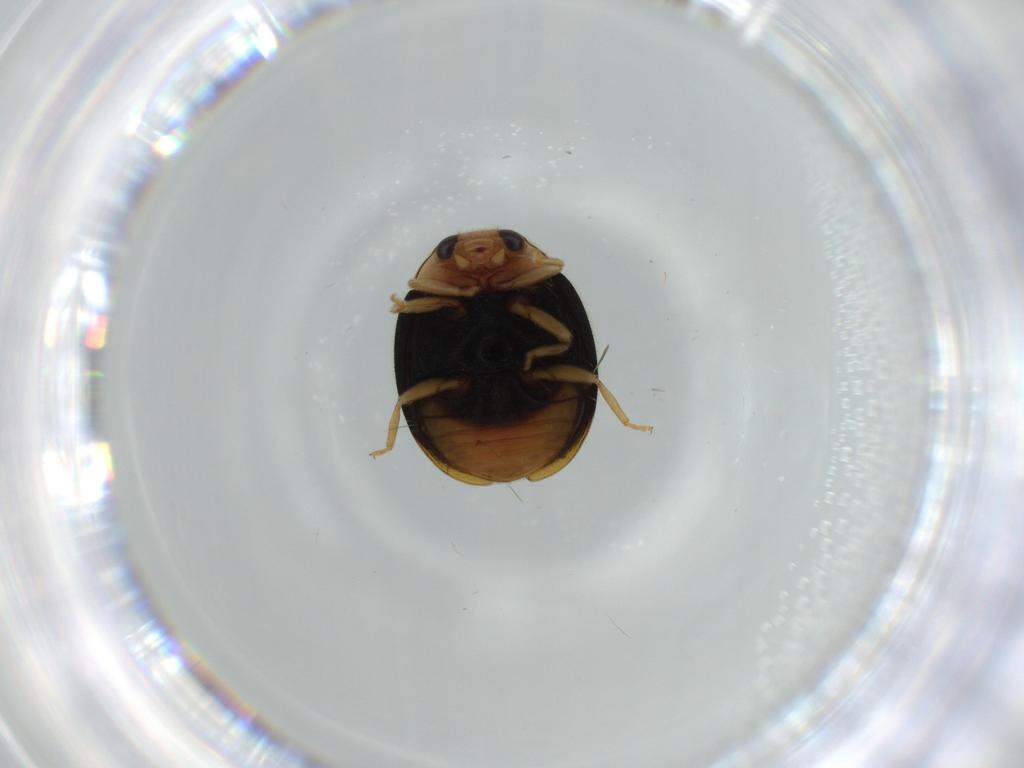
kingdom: Animalia
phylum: Arthropoda
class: Insecta
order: Coleoptera
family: Coccinellidae
